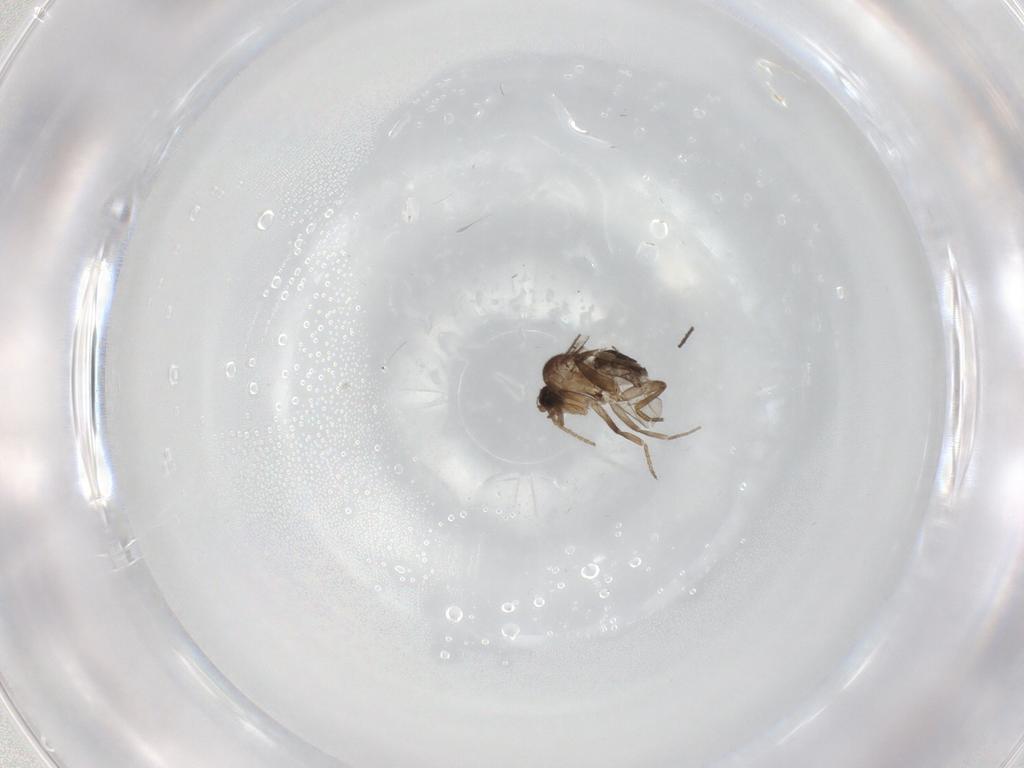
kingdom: Animalia
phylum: Arthropoda
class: Insecta
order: Diptera
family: Sciaridae
